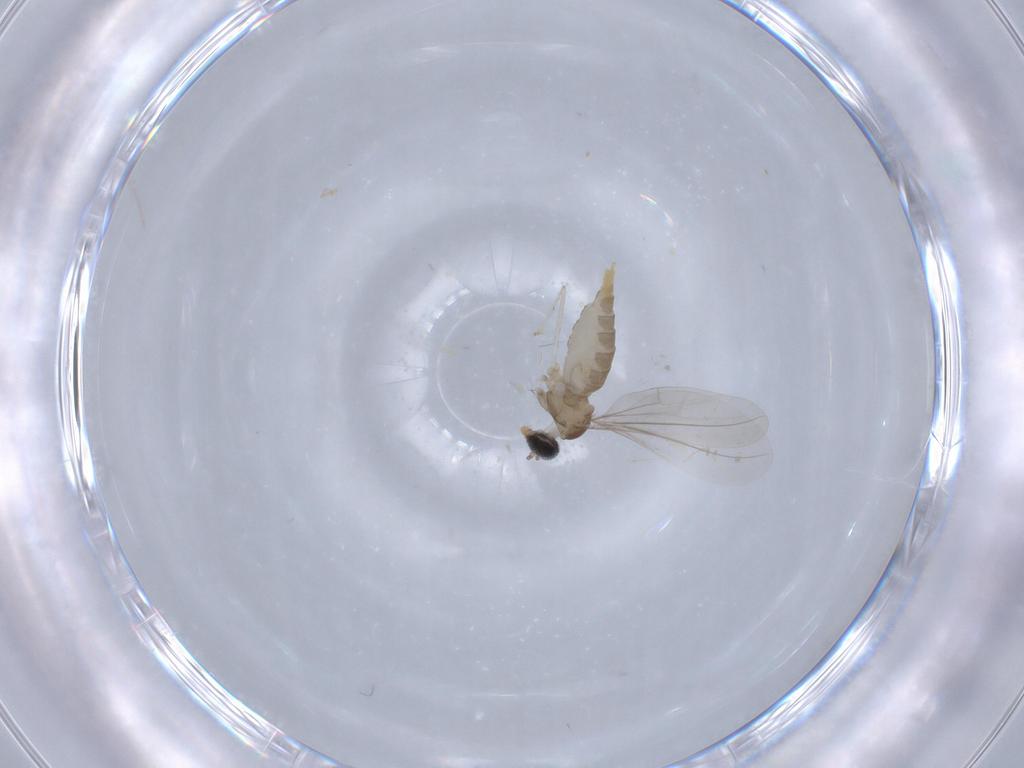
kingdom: Animalia
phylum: Arthropoda
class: Insecta
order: Diptera
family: Cecidomyiidae
